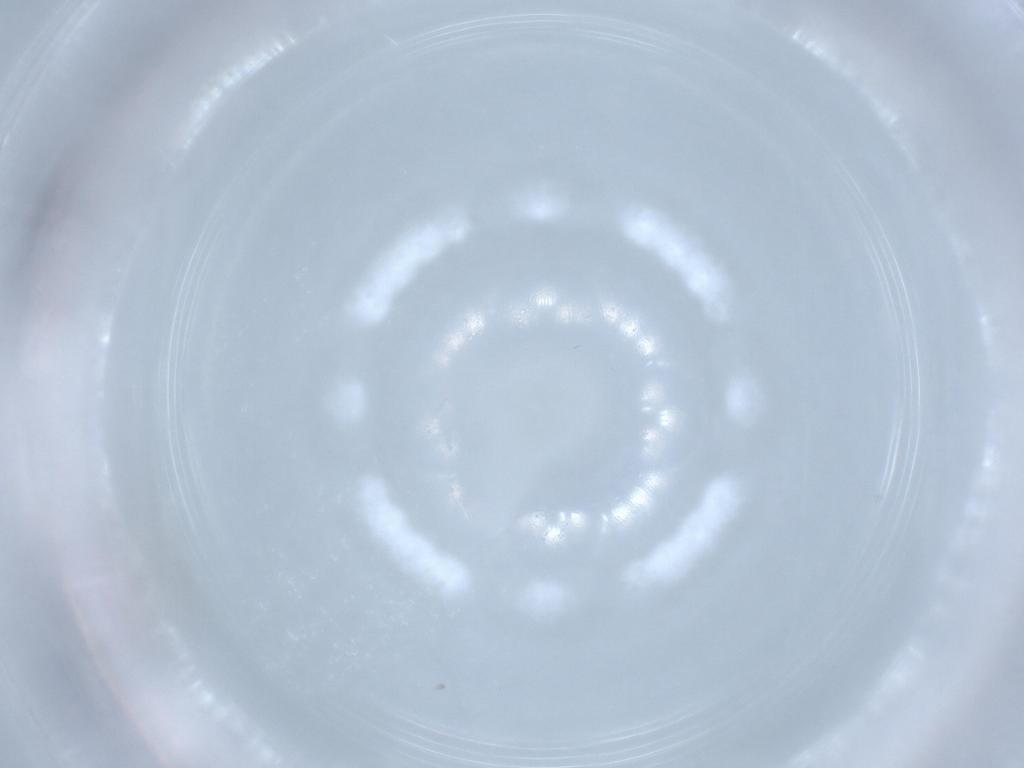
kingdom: Animalia
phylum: Arthropoda
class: Insecta
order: Diptera
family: Chironomidae
